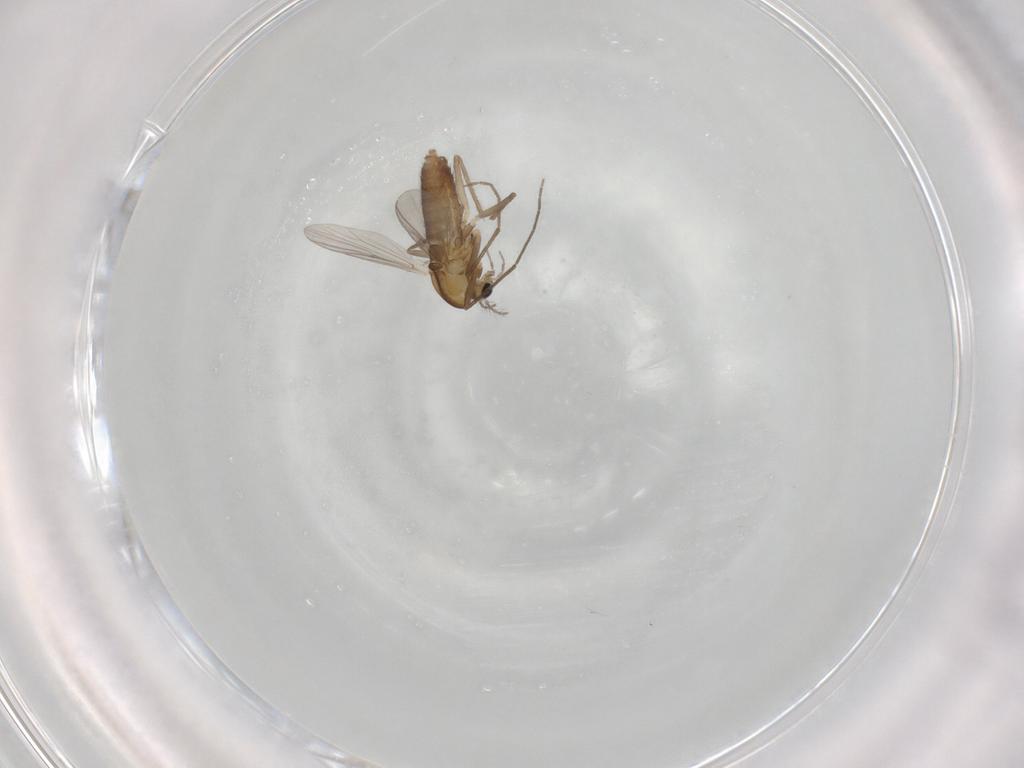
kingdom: Animalia
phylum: Arthropoda
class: Insecta
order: Diptera
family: Chironomidae
